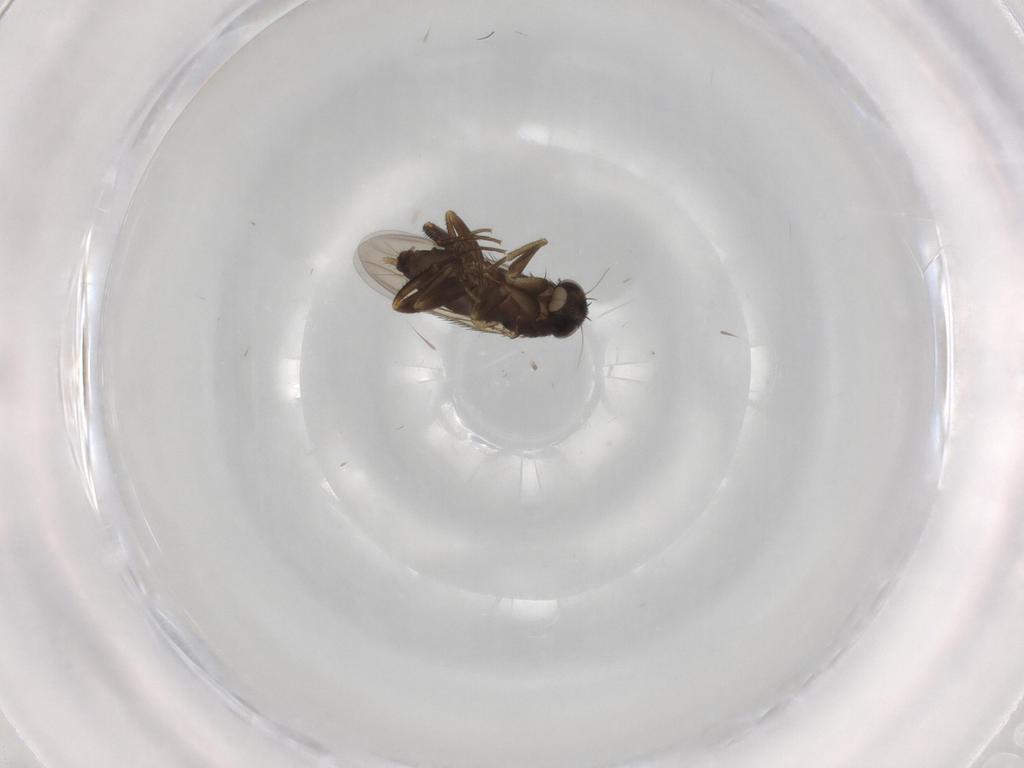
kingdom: Animalia
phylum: Arthropoda
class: Insecta
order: Diptera
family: Phoridae
